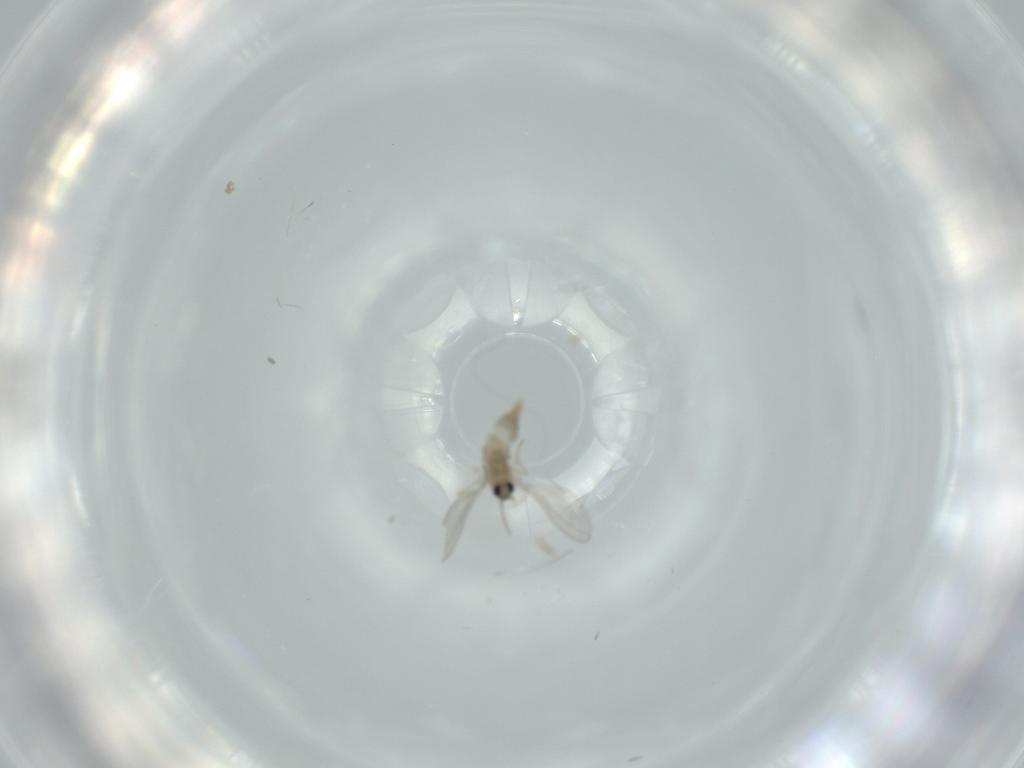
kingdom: Animalia
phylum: Arthropoda
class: Insecta
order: Diptera
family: Cecidomyiidae
